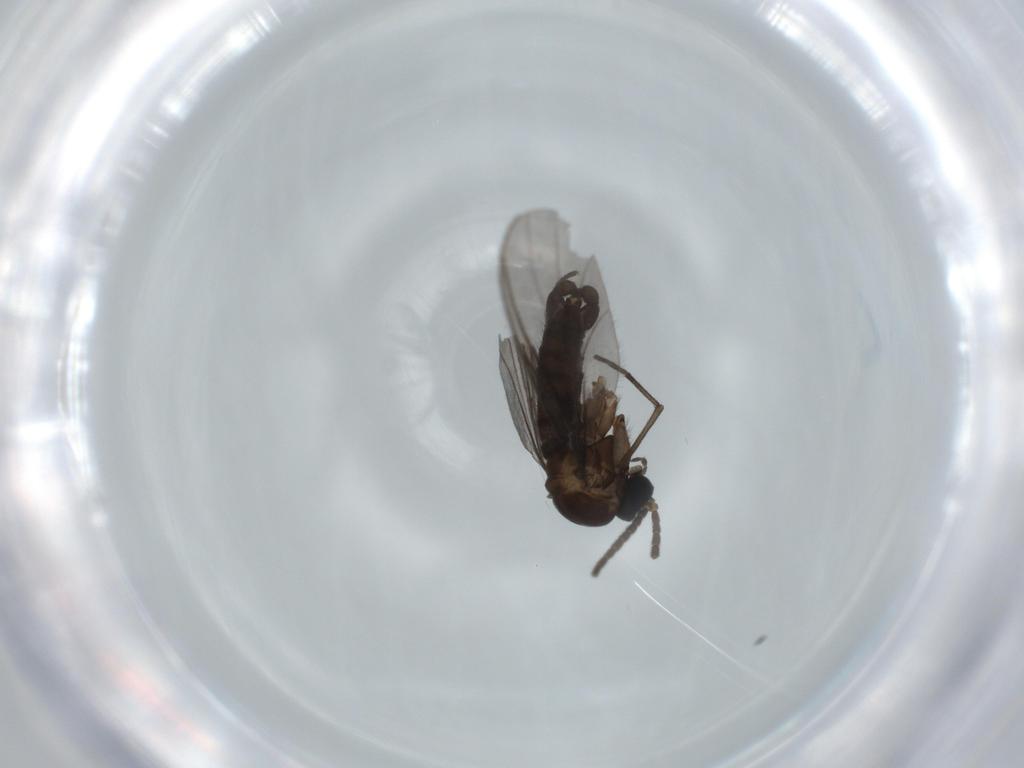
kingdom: Animalia
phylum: Arthropoda
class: Insecta
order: Diptera
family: Sciaridae
